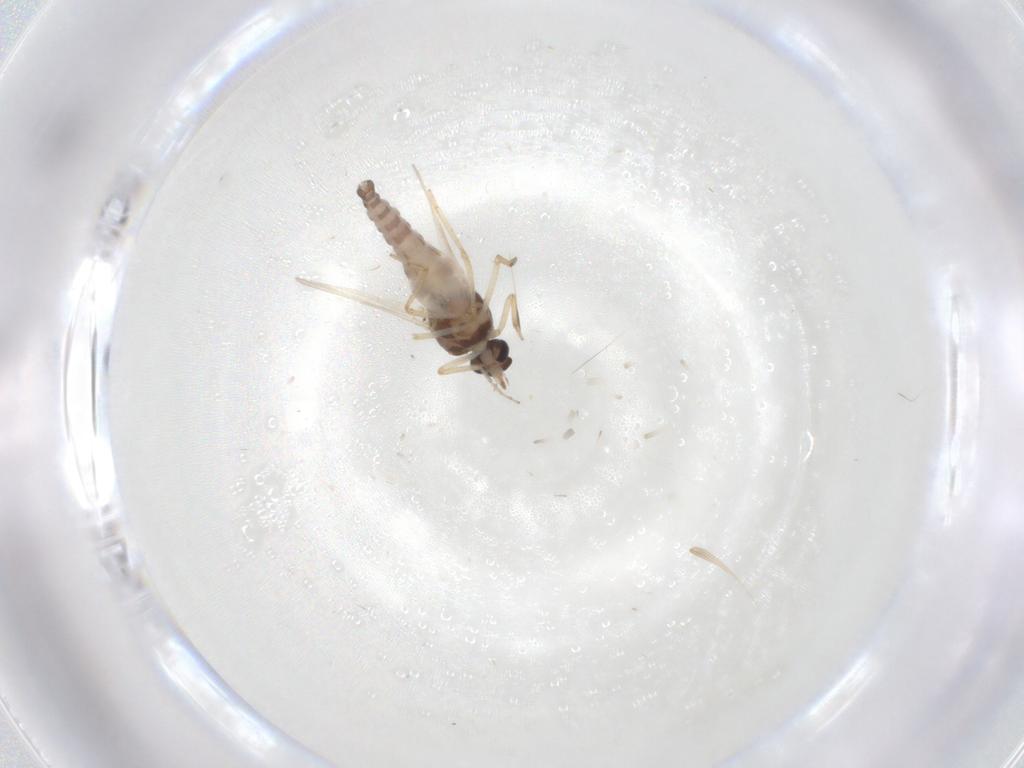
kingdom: Animalia
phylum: Arthropoda
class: Insecta
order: Diptera
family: Ceratopogonidae
